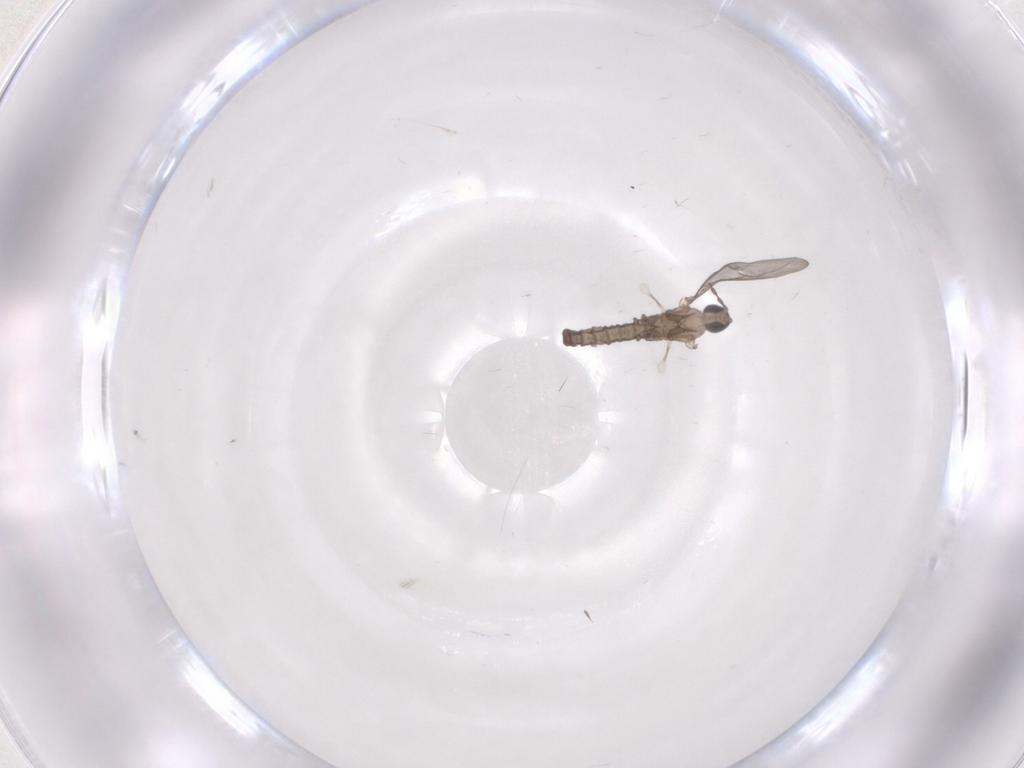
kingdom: Animalia
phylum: Arthropoda
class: Insecta
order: Diptera
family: Cecidomyiidae
